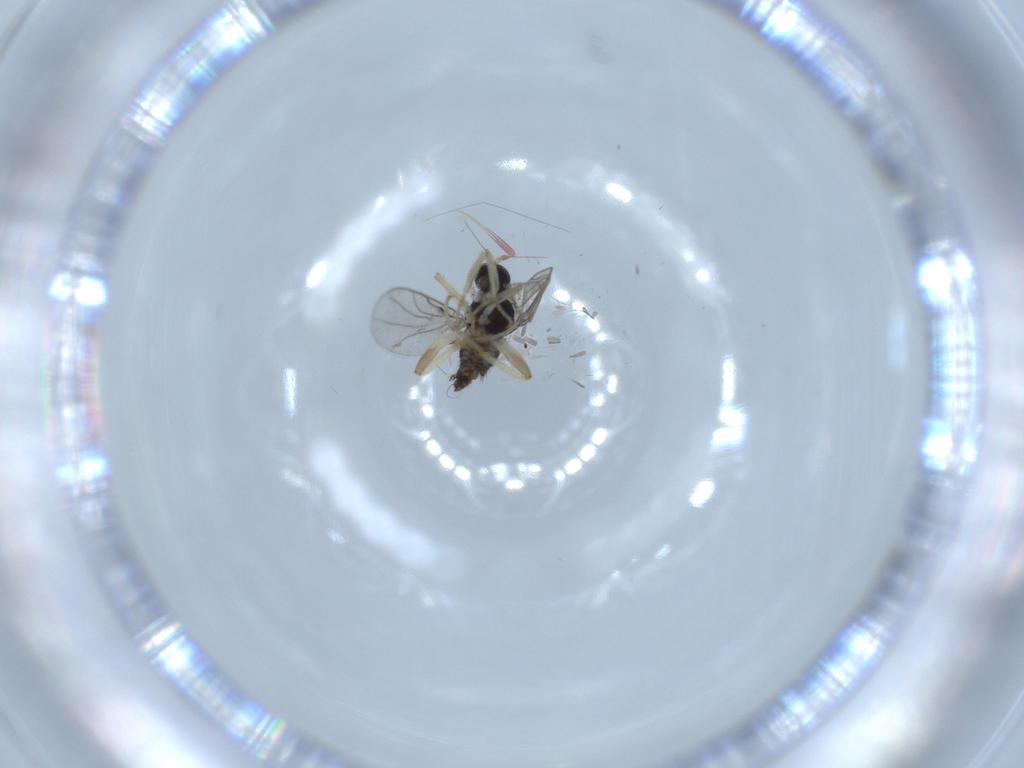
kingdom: Animalia
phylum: Arthropoda
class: Insecta
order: Diptera
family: Hybotidae
